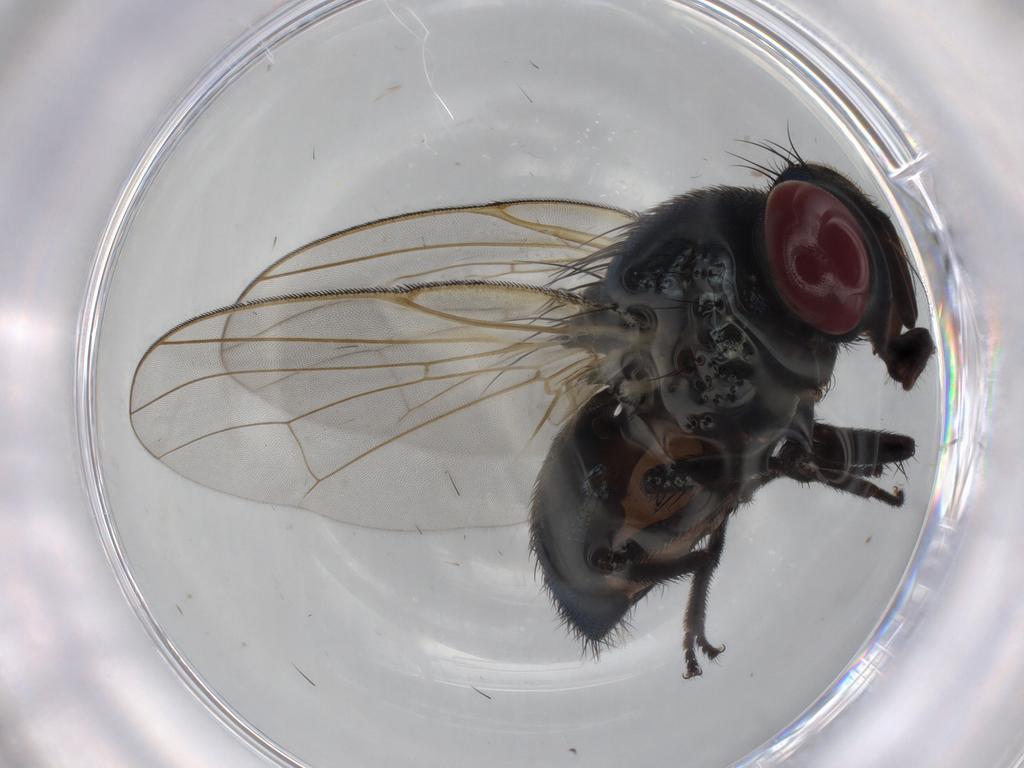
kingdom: Animalia
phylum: Arthropoda
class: Insecta
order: Diptera
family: Lonchaeidae
